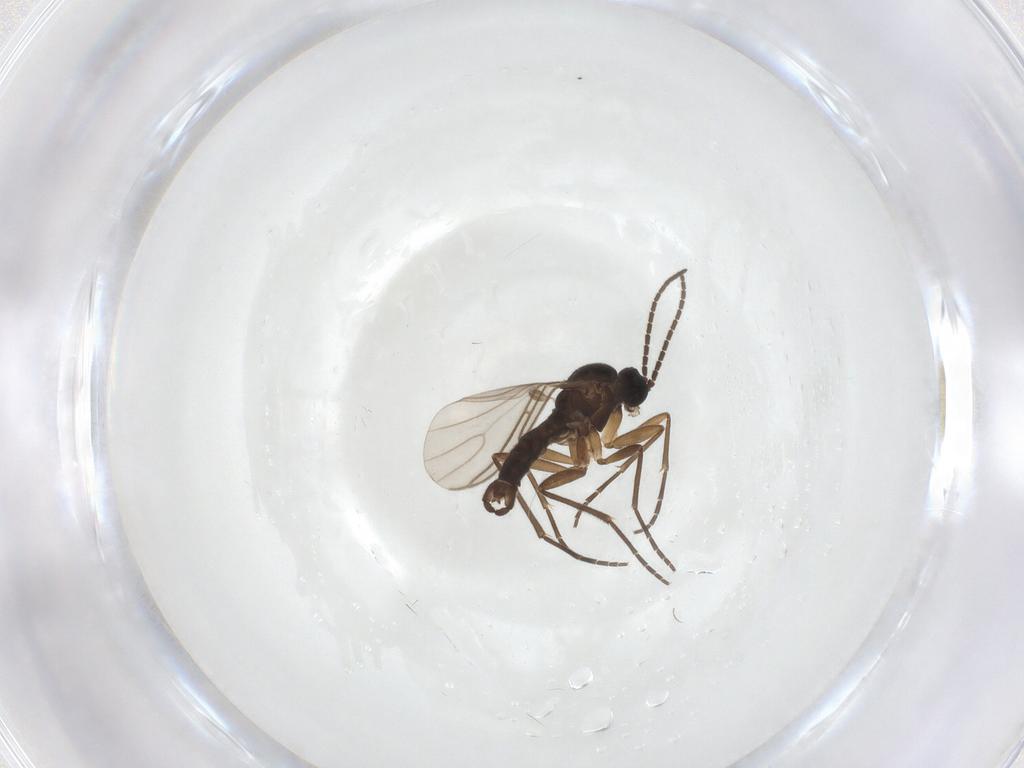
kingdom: Animalia
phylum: Arthropoda
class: Insecta
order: Diptera
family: Sciaridae
